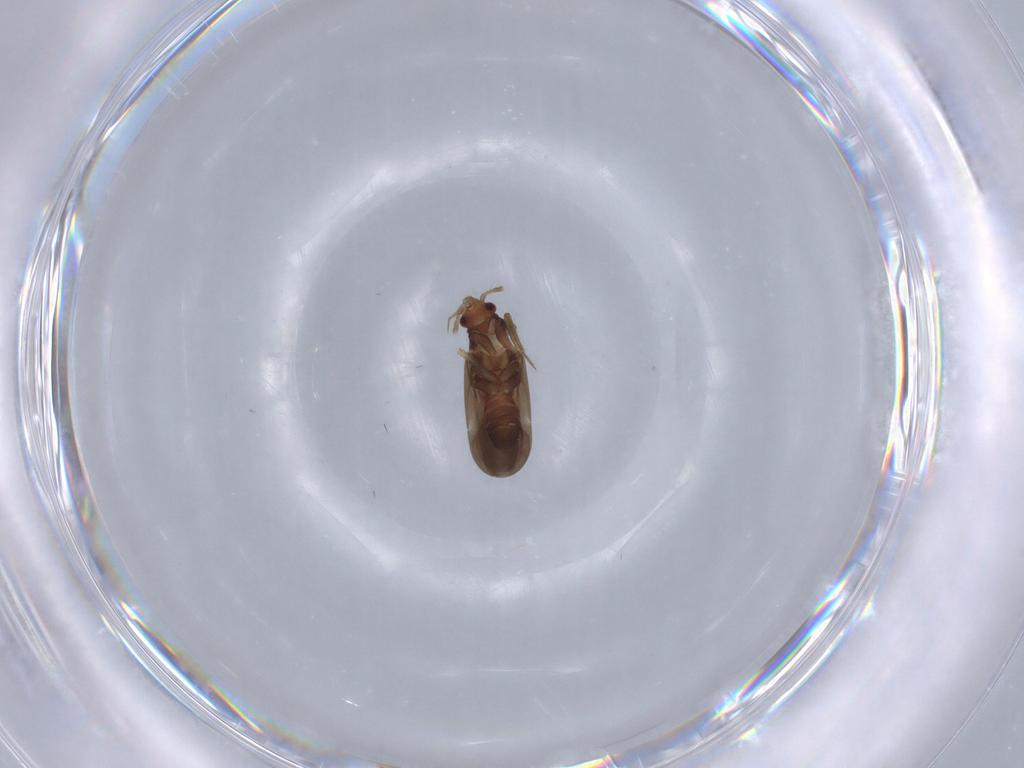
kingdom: Animalia
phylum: Arthropoda
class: Insecta
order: Hemiptera
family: Ceratocombidae
